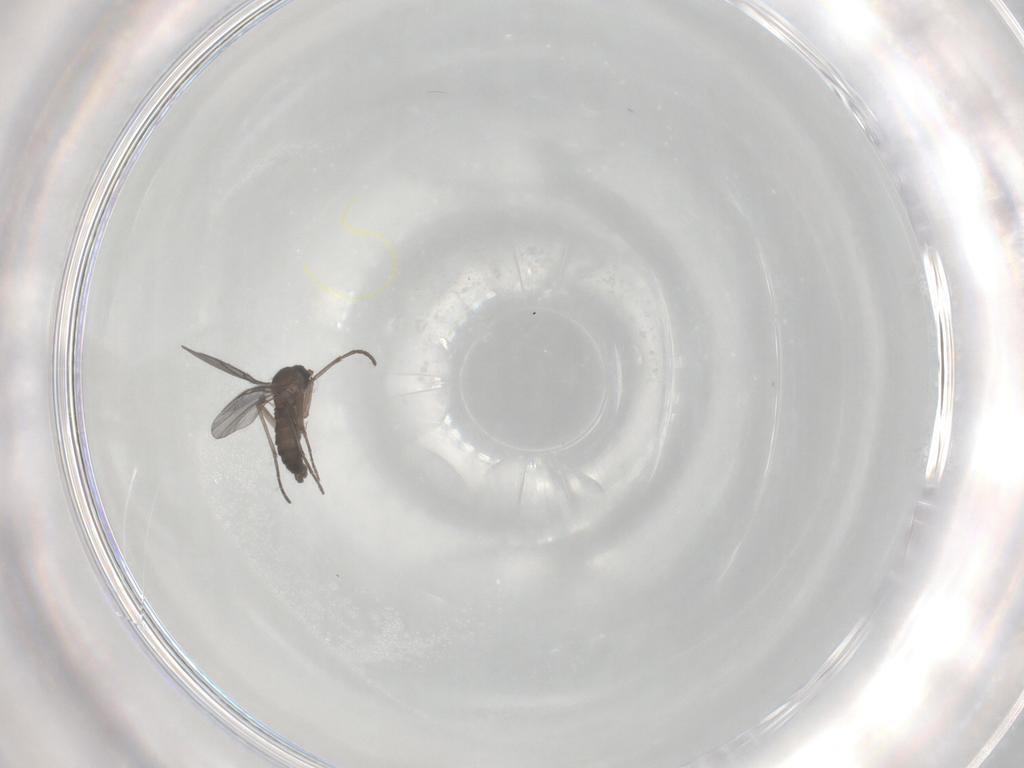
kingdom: Animalia
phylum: Arthropoda
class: Insecta
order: Diptera
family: Sciaridae
